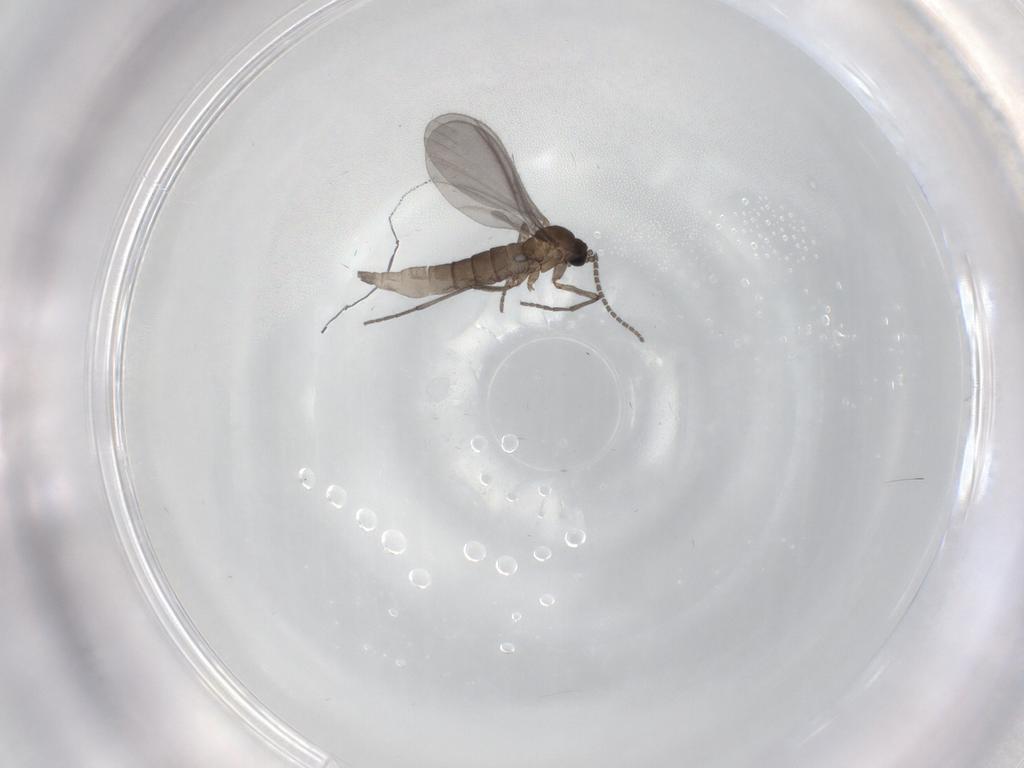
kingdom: Animalia
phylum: Arthropoda
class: Insecta
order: Diptera
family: Sciaridae
